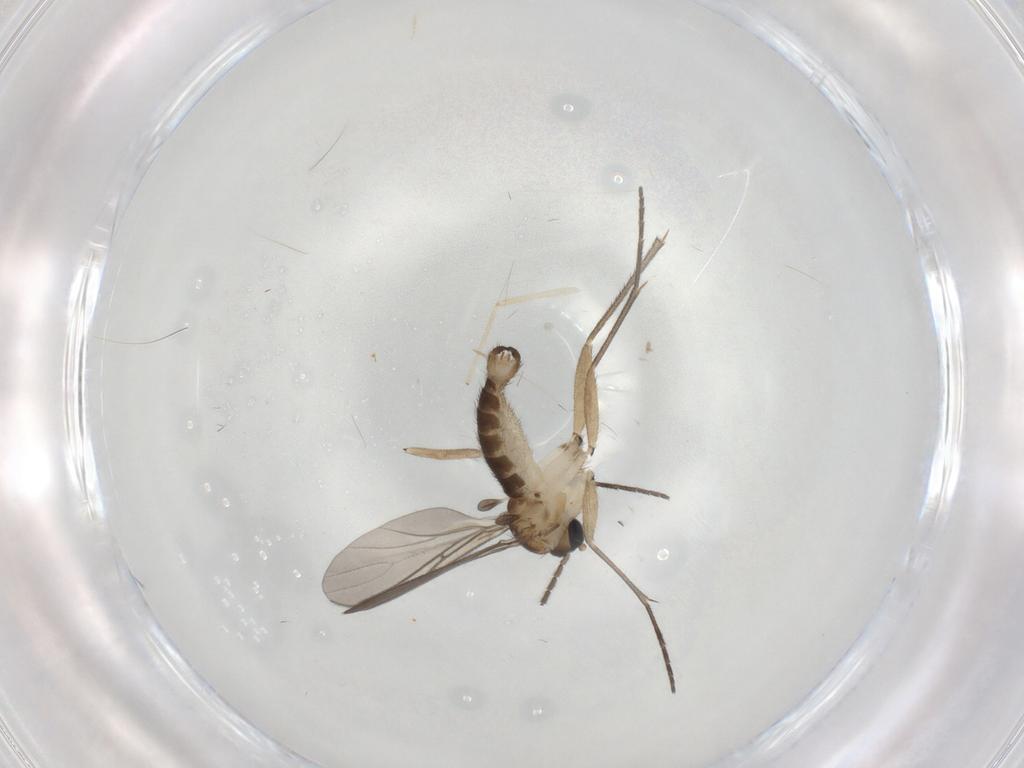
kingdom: Animalia
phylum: Arthropoda
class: Insecta
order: Diptera
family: Sciaridae
